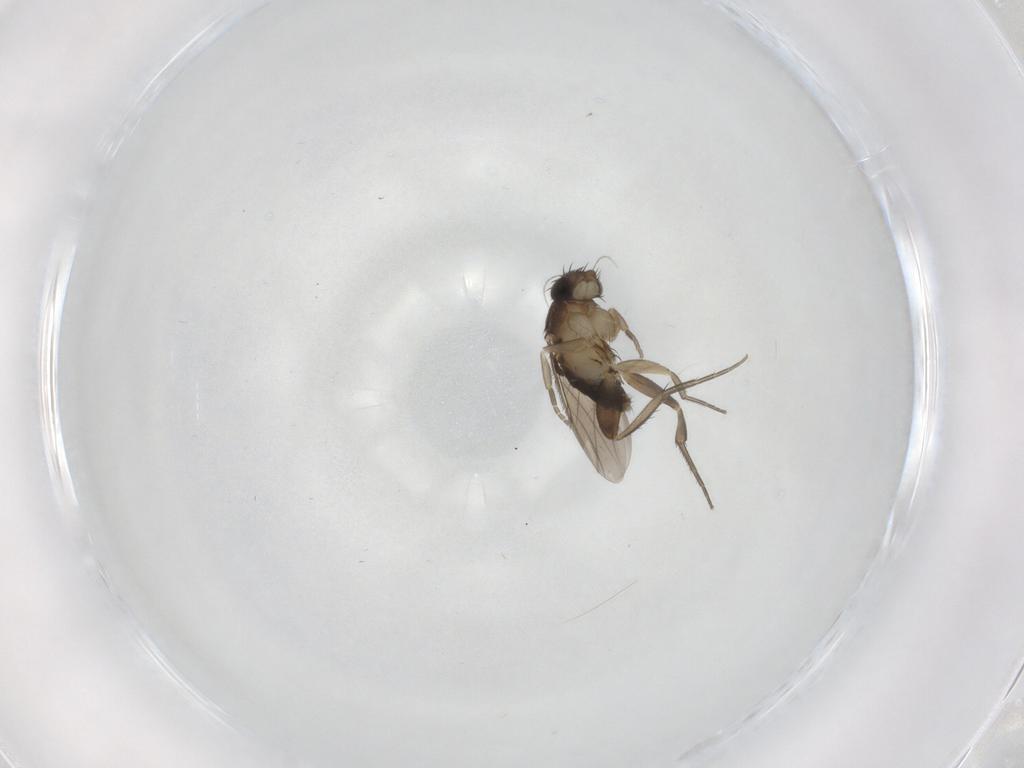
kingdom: Animalia
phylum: Arthropoda
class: Insecta
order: Diptera
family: Phoridae
